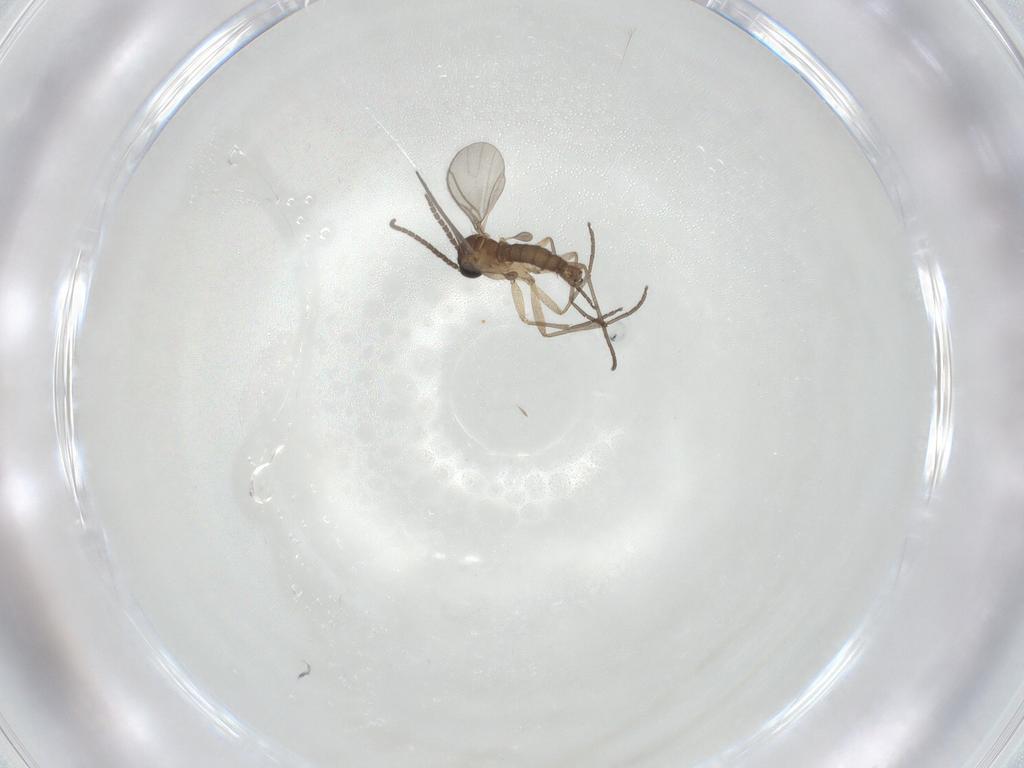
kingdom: Animalia
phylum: Arthropoda
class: Insecta
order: Diptera
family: Sciaridae
